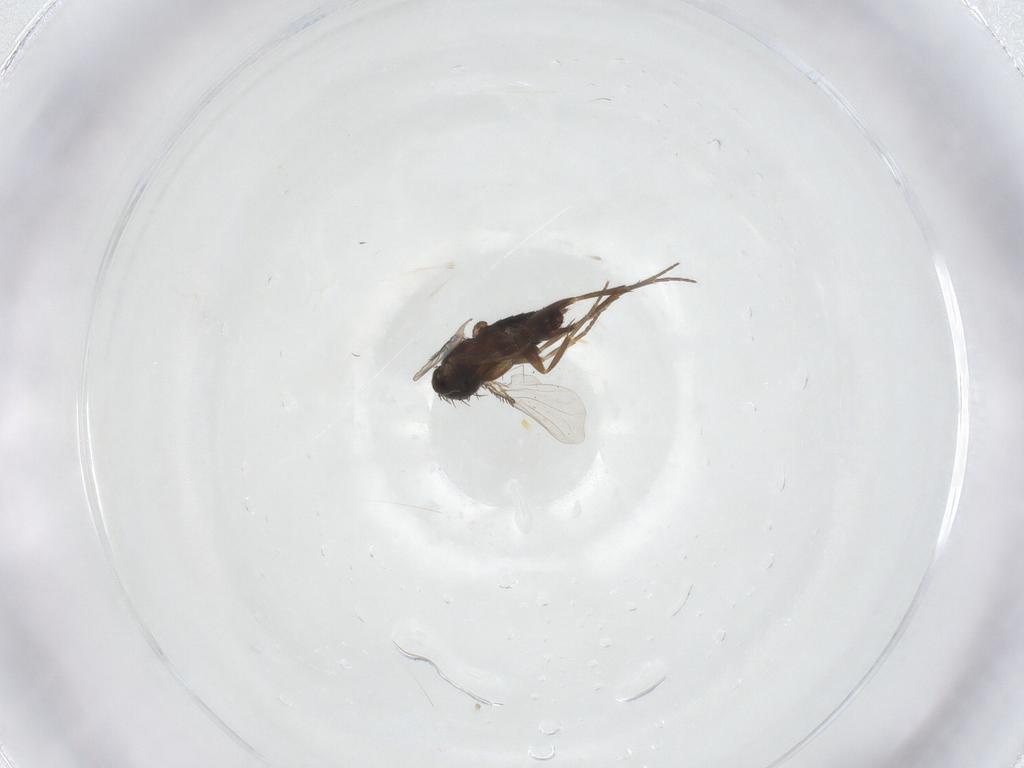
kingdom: Animalia
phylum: Arthropoda
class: Insecta
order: Diptera
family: Phoridae
